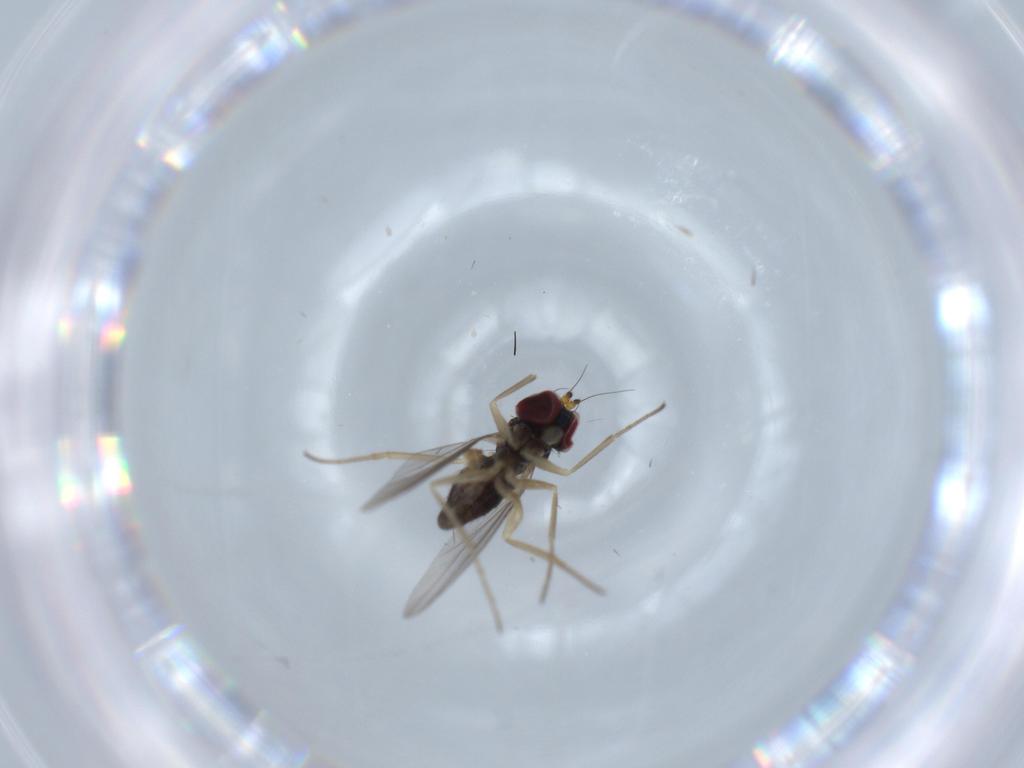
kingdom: Animalia
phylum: Arthropoda
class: Insecta
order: Diptera
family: Dolichopodidae
